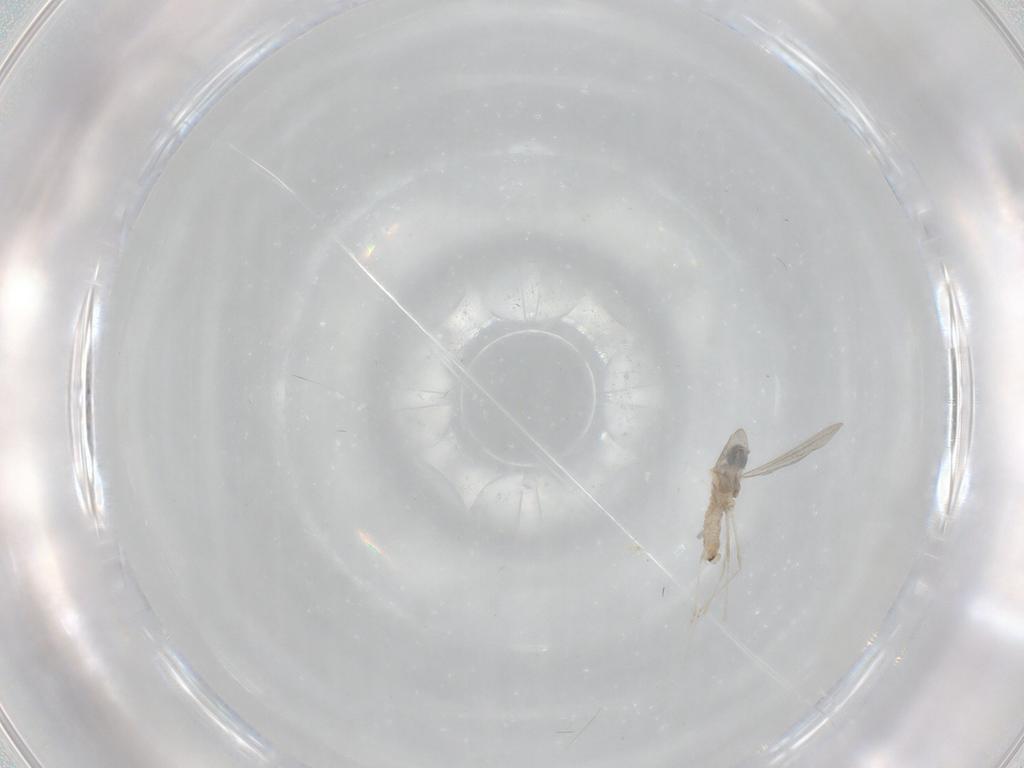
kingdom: Animalia
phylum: Arthropoda
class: Insecta
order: Diptera
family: Cecidomyiidae
